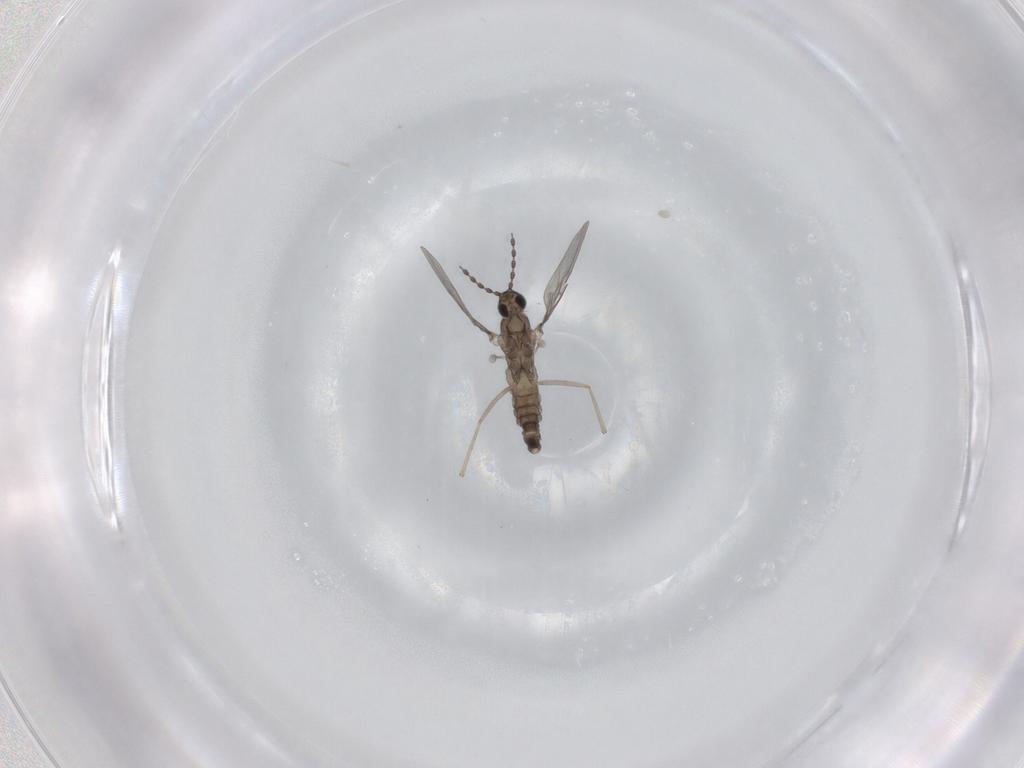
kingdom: Animalia
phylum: Arthropoda
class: Insecta
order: Diptera
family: Cecidomyiidae
